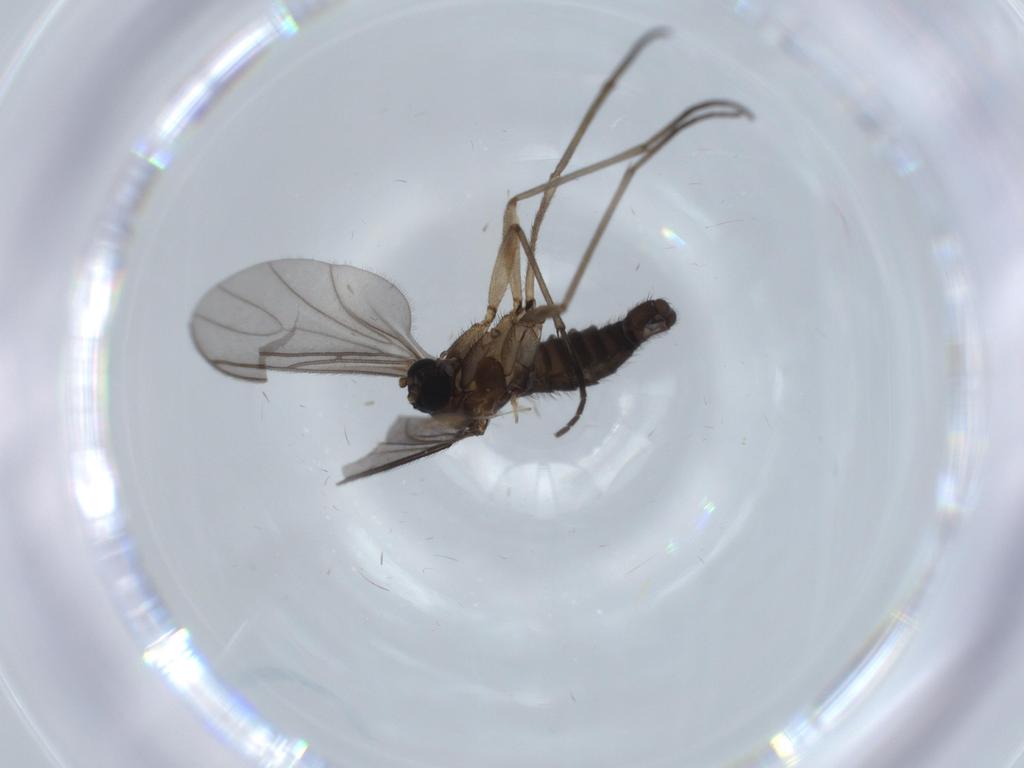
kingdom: Animalia
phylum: Arthropoda
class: Insecta
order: Diptera
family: Sciaridae
